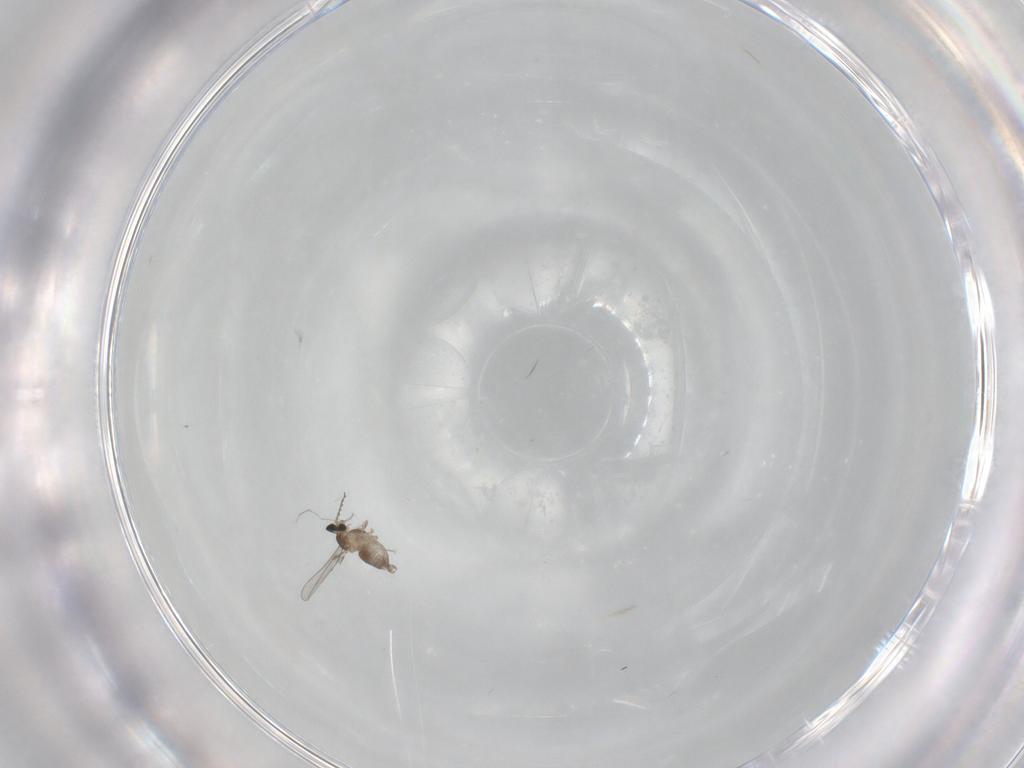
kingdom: Animalia
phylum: Arthropoda
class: Insecta
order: Diptera
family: Cecidomyiidae
